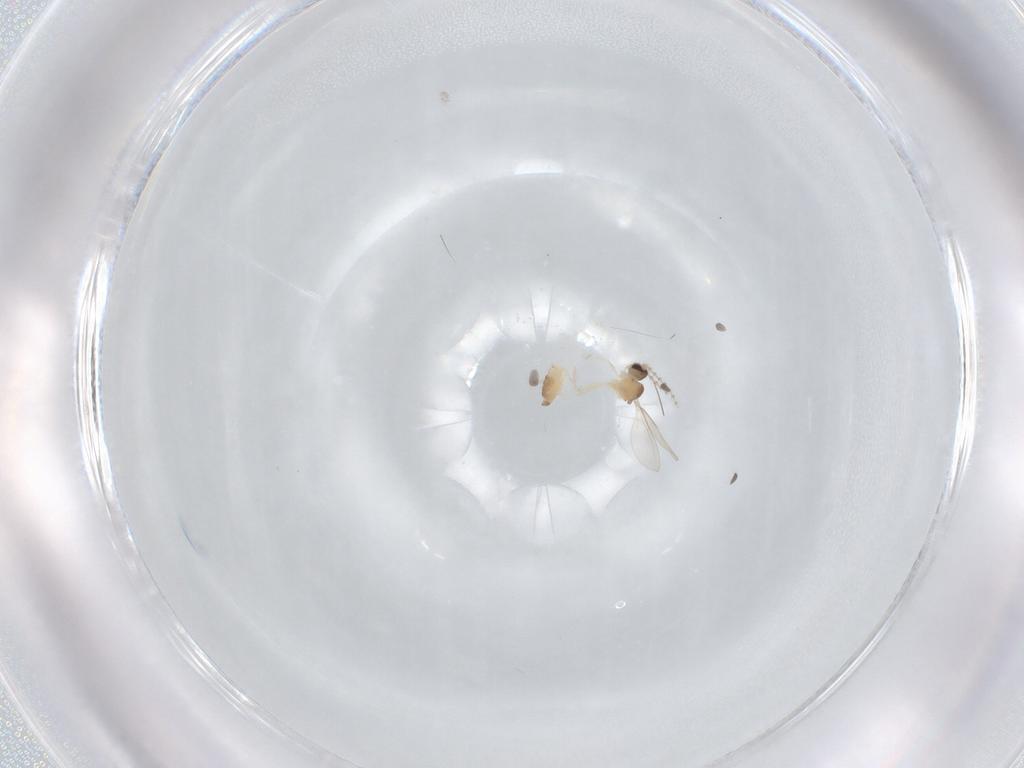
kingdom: Animalia
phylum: Arthropoda
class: Insecta
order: Diptera
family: Cecidomyiidae
